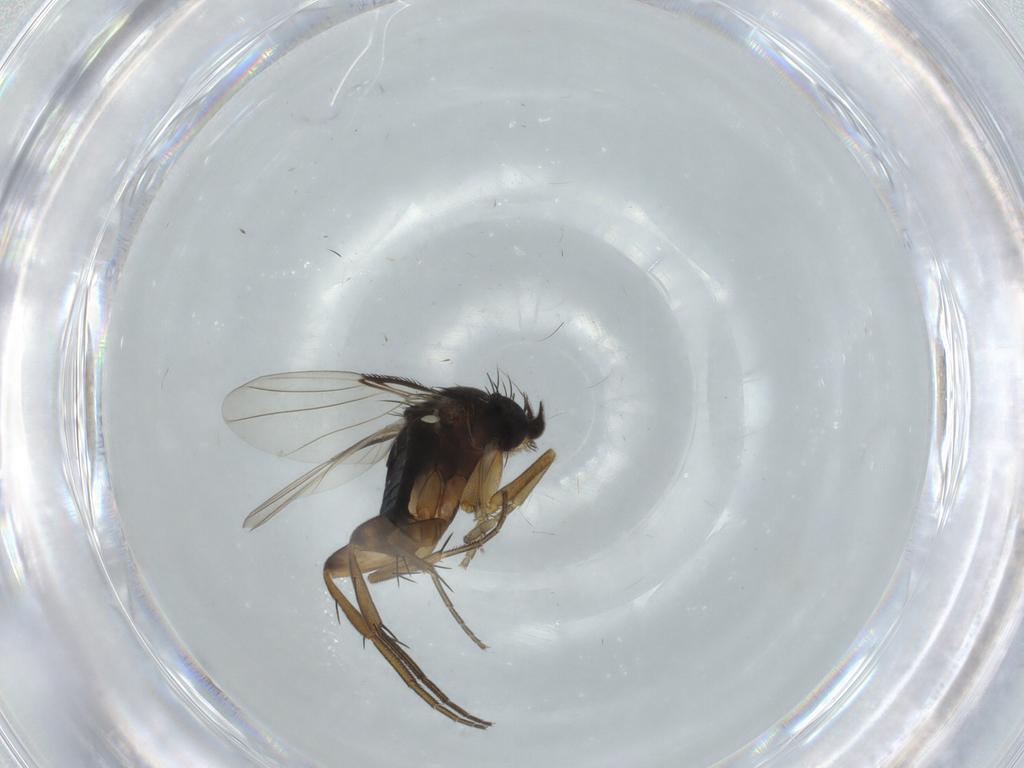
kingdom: Animalia
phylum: Arthropoda
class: Insecta
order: Diptera
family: Phoridae
